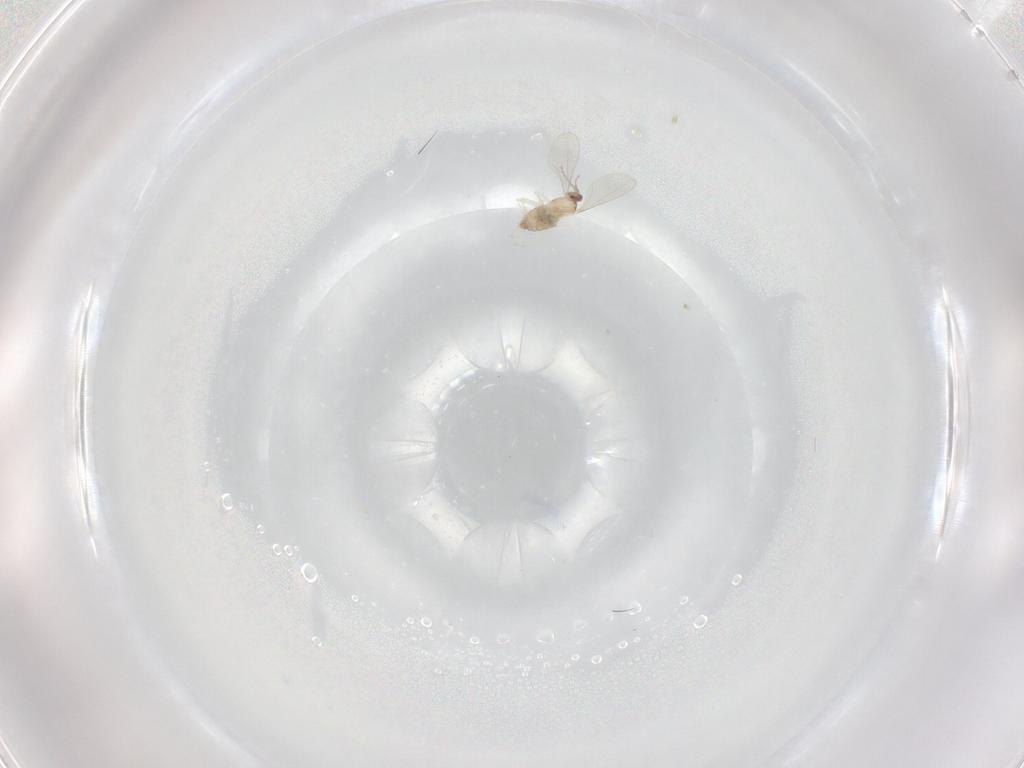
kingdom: Animalia
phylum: Arthropoda
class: Insecta
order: Diptera
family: Cecidomyiidae
